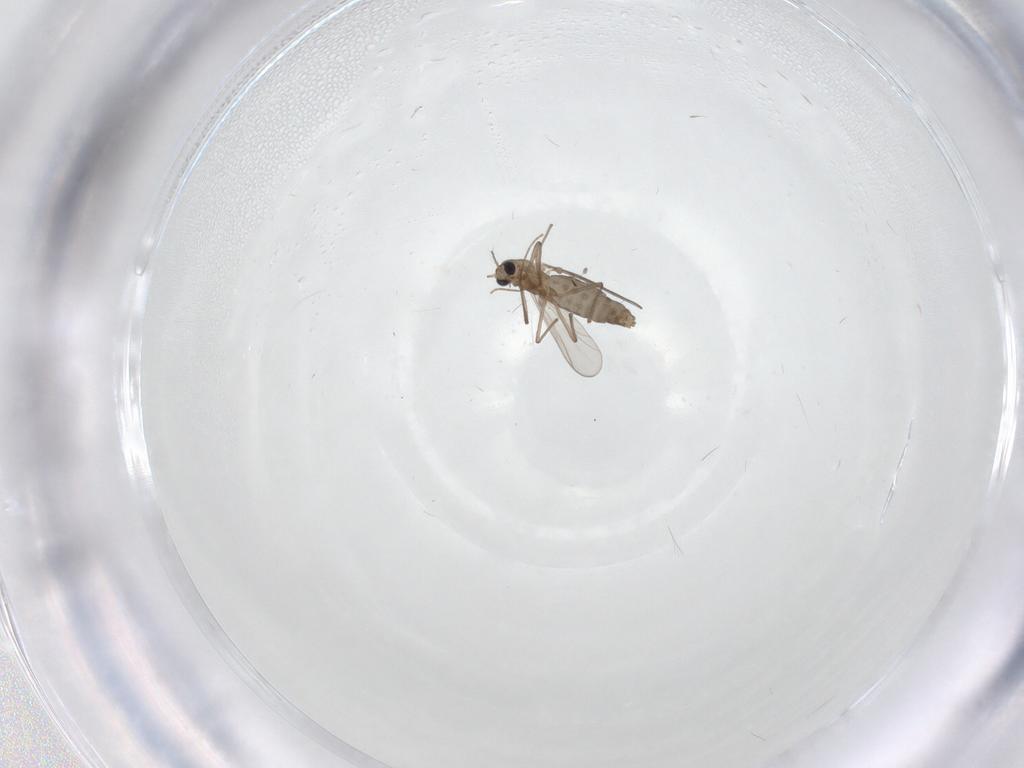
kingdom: Animalia
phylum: Arthropoda
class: Insecta
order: Diptera
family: Chironomidae
